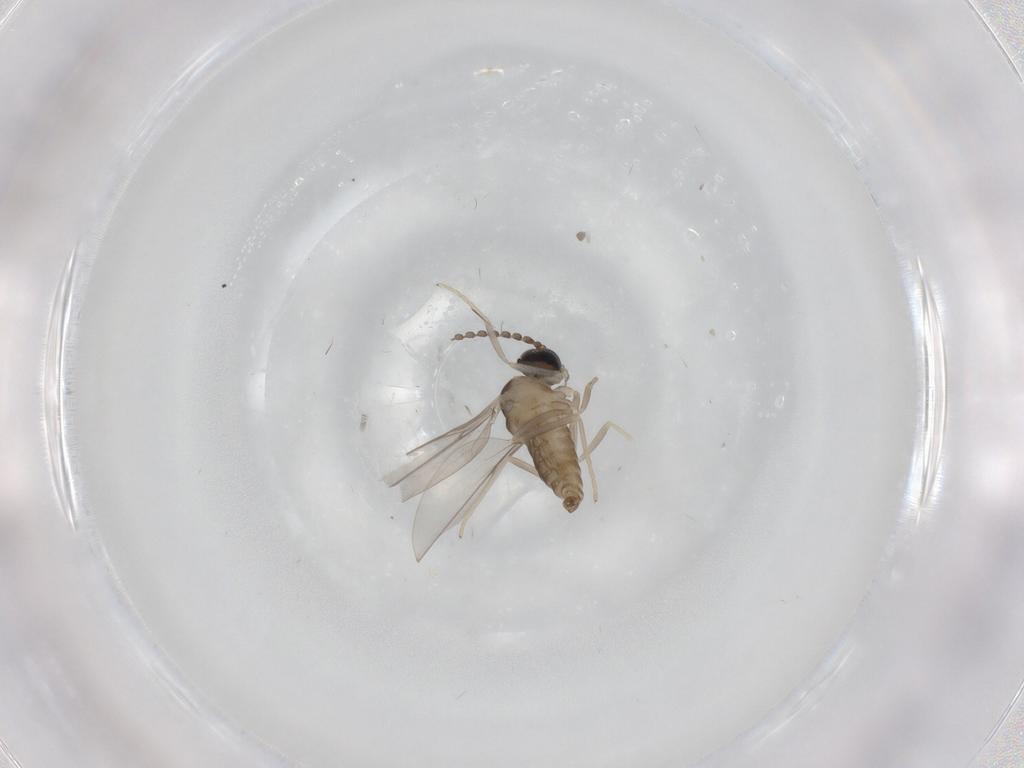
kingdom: Animalia
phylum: Arthropoda
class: Insecta
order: Diptera
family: Cecidomyiidae
